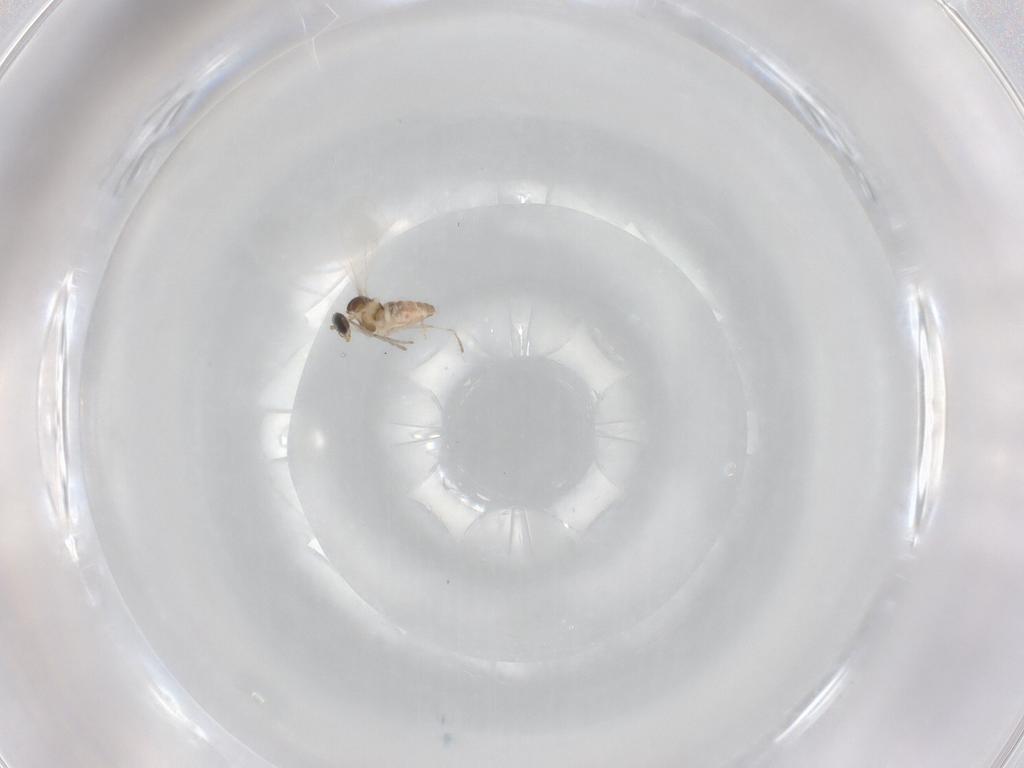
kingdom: Animalia
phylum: Arthropoda
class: Insecta
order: Diptera
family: Cecidomyiidae
